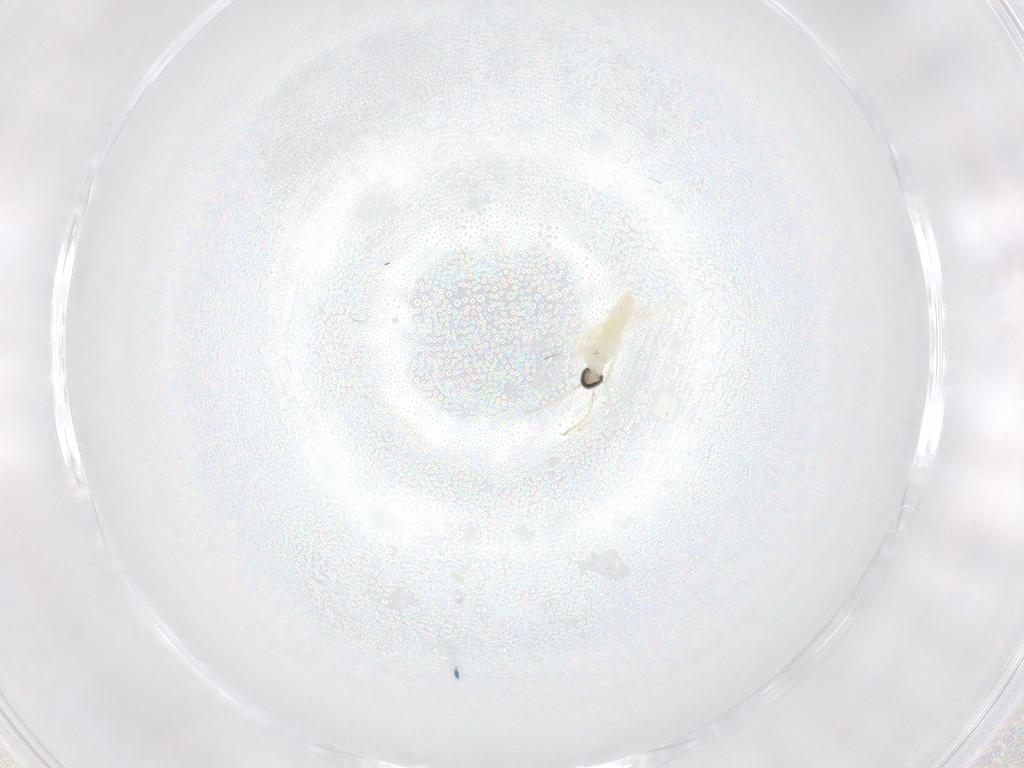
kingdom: Animalia
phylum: Arthropoda
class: Insecta
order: Diptera
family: Cecidomyiidae
